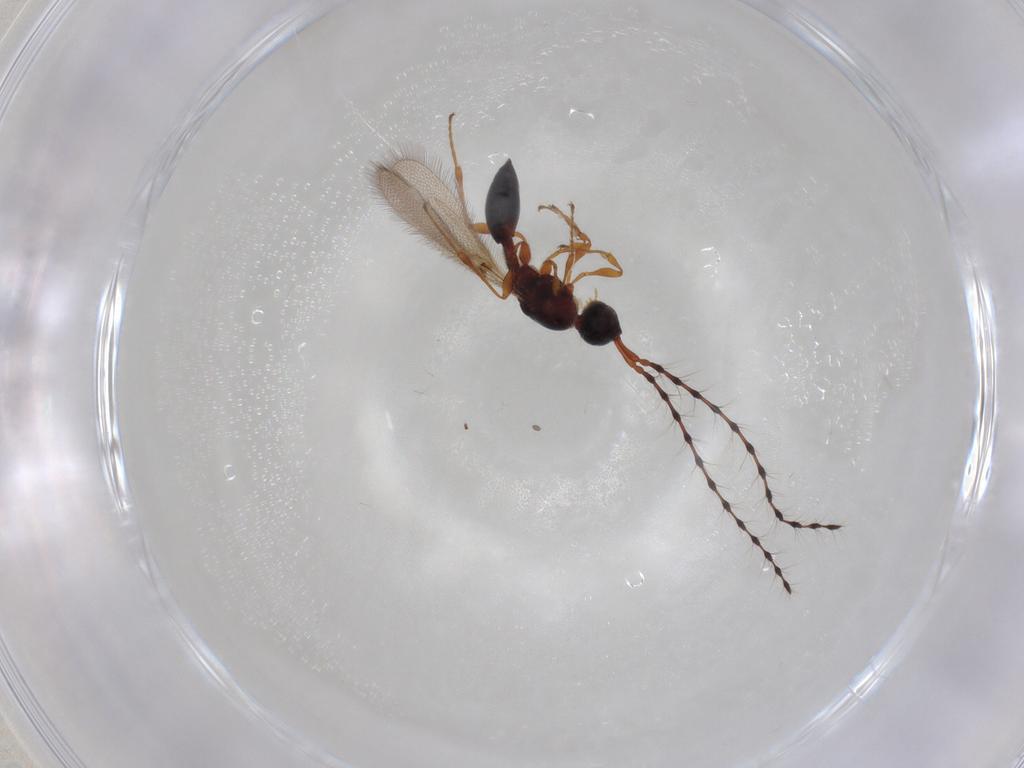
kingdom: Animalia
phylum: Arthropoda
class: Insecta
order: Hymenoptera
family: Diapriidae
